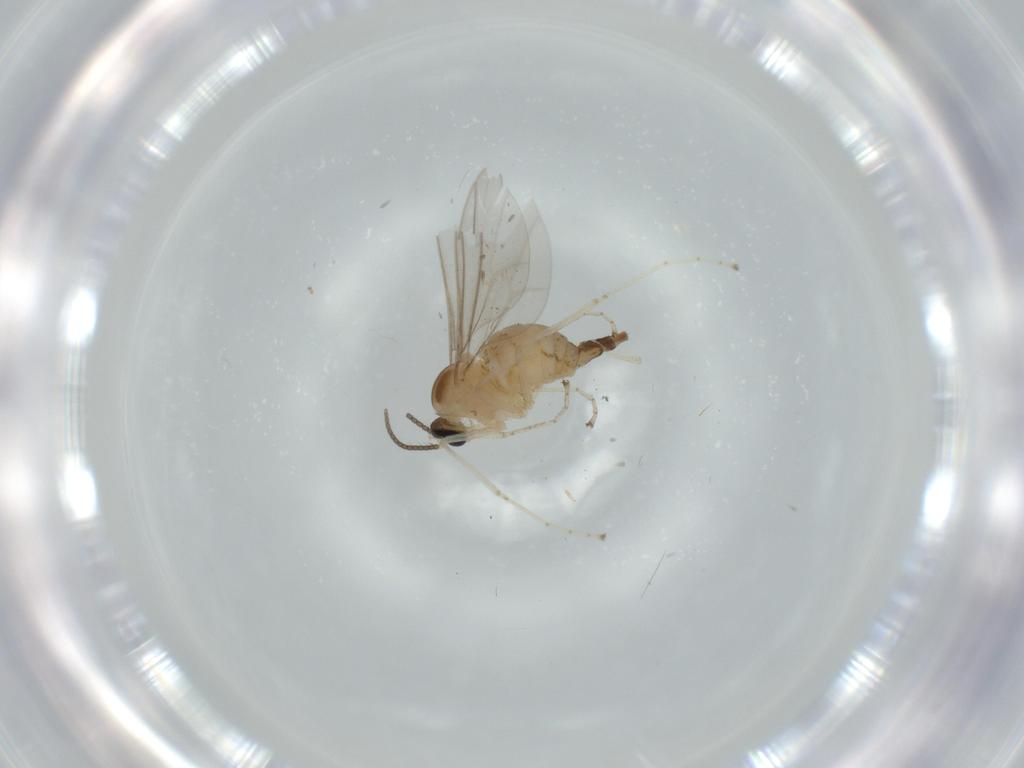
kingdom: Animalia
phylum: Arthropoda
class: Insecta
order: Diptera
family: Cecidomyiidae
